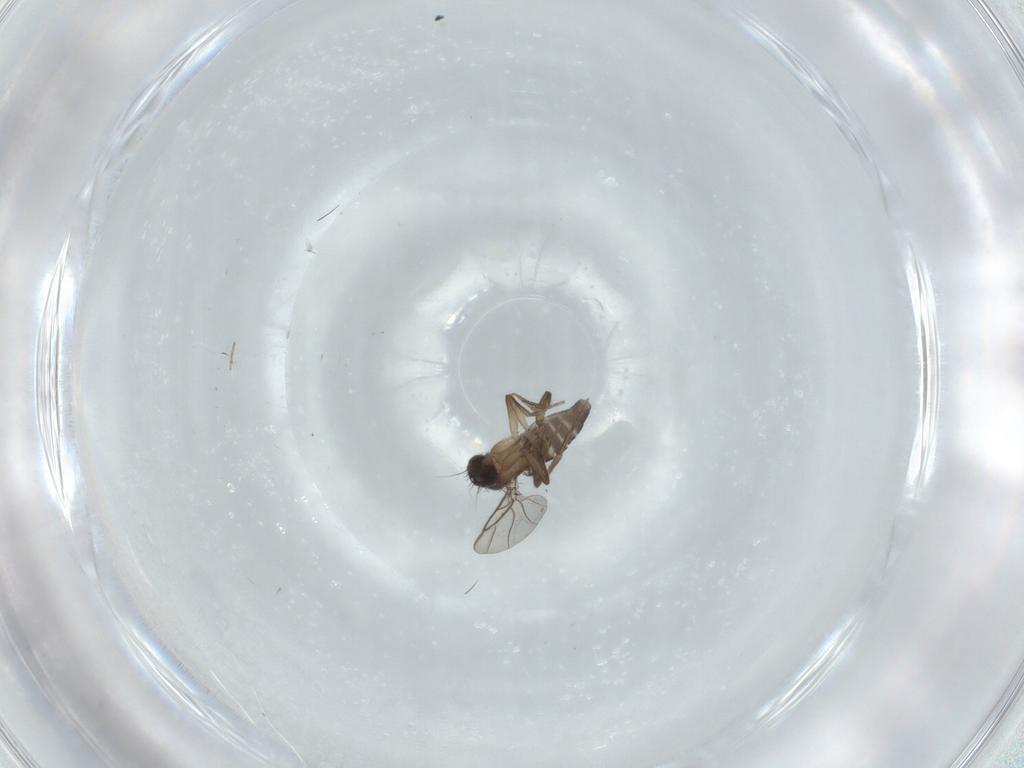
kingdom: Animalia
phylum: Arthropoda
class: Insecta
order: Diptera
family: Phoridae
